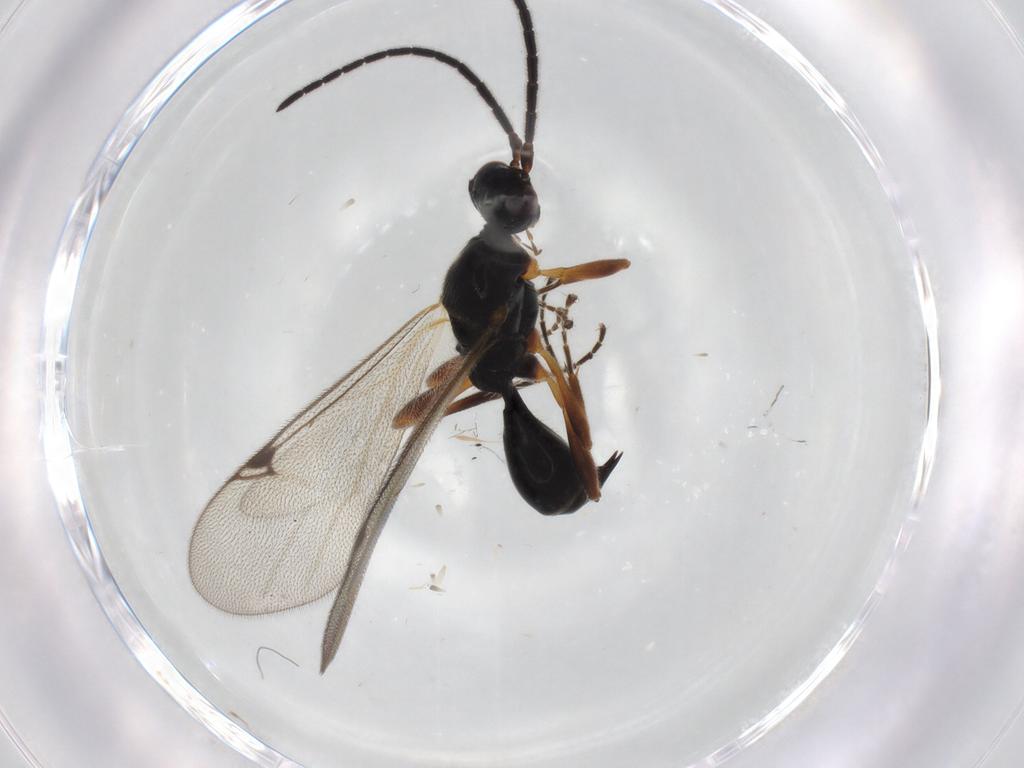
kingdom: Animalia
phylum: Arthropoda
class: Insecta
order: Hymenoptera
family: Proctotrupidae
